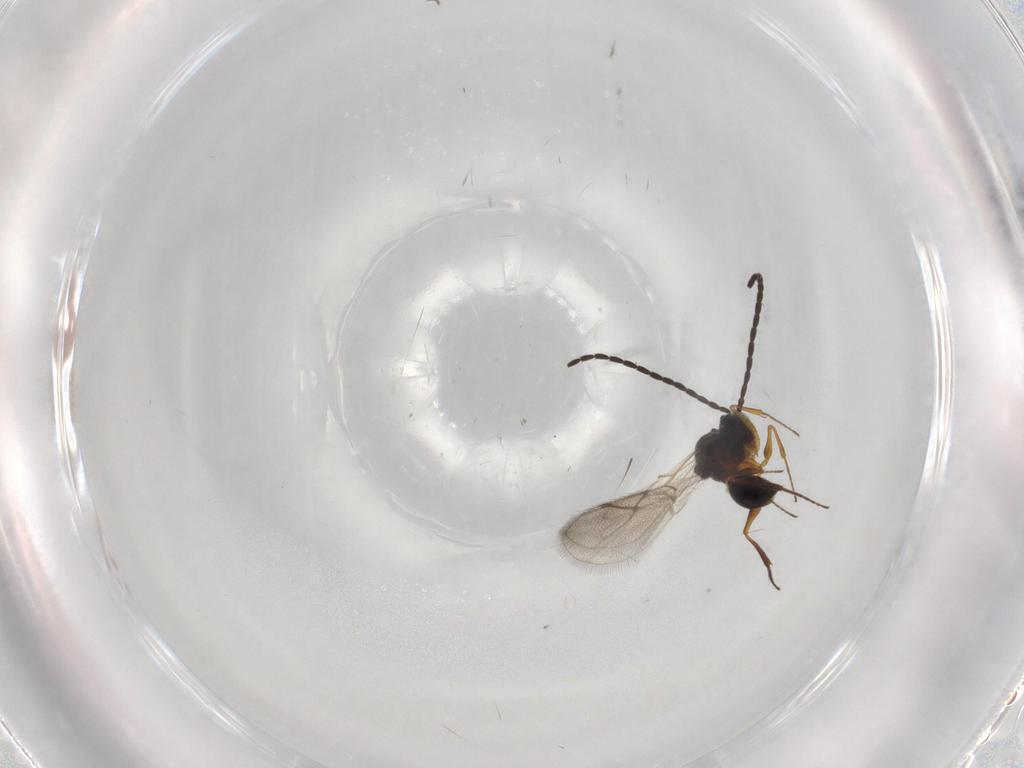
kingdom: Animalia
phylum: Arthropoda
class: Insecta
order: Hymenoptera
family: Figitidae
